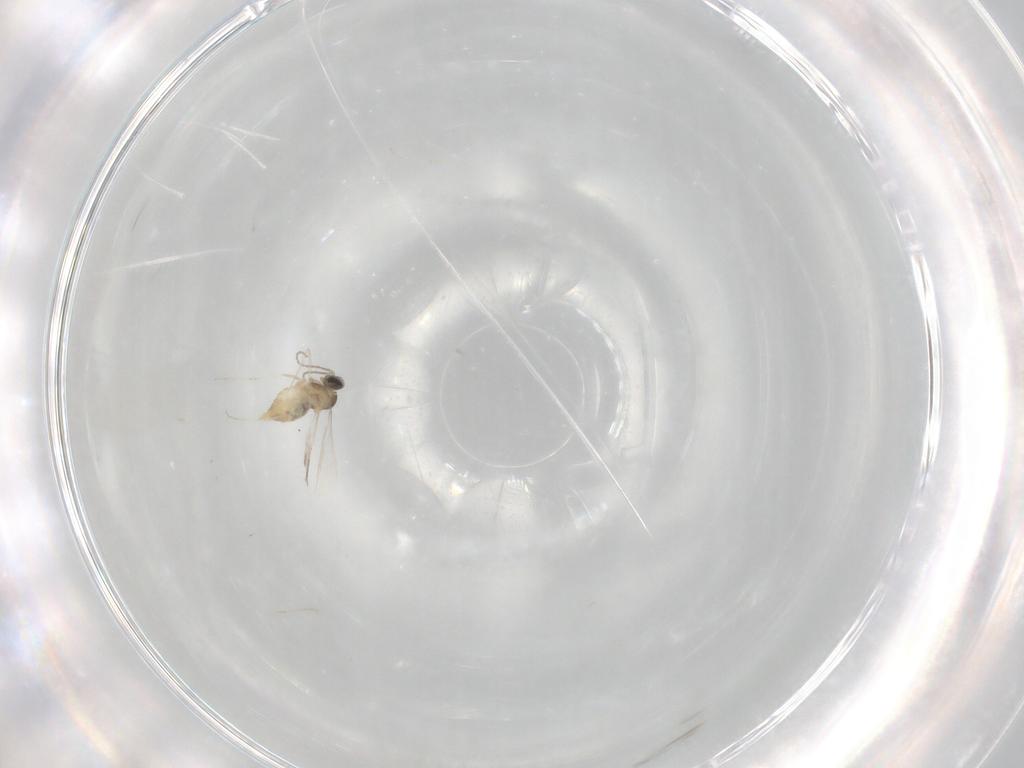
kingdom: Animalia
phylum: Arthropoda
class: Insecta
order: Diptera
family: Cecidomyiidae
